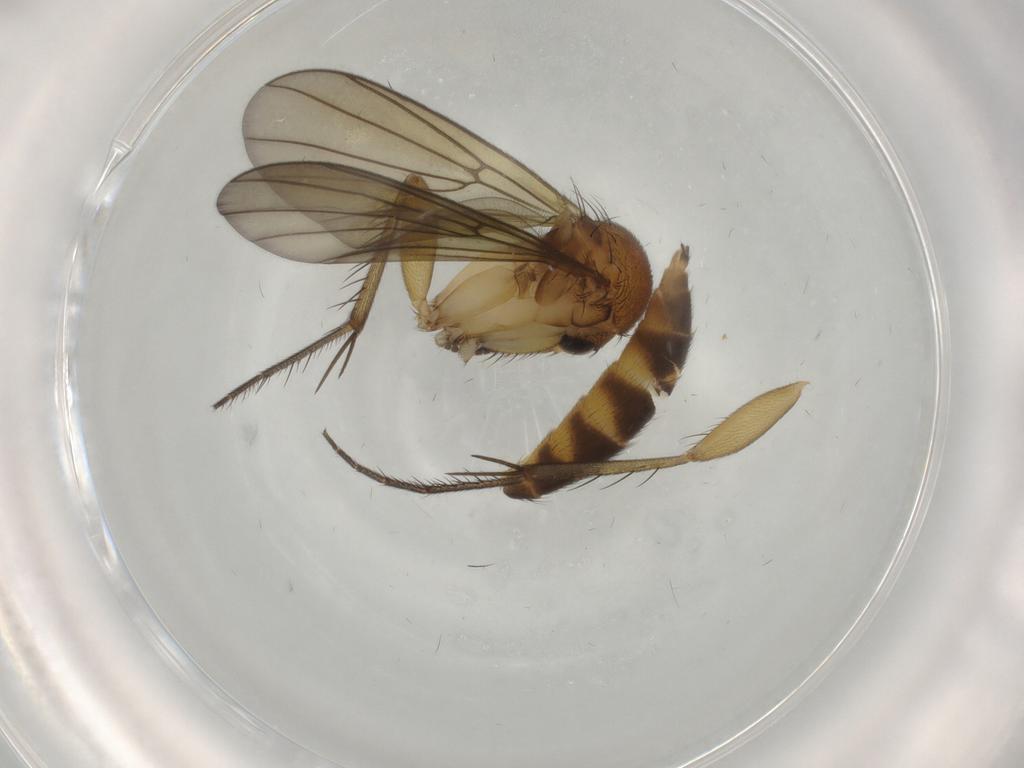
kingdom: Animalia
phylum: Arthropoda
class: Insecta
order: Diptera
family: Mycetophilidae
